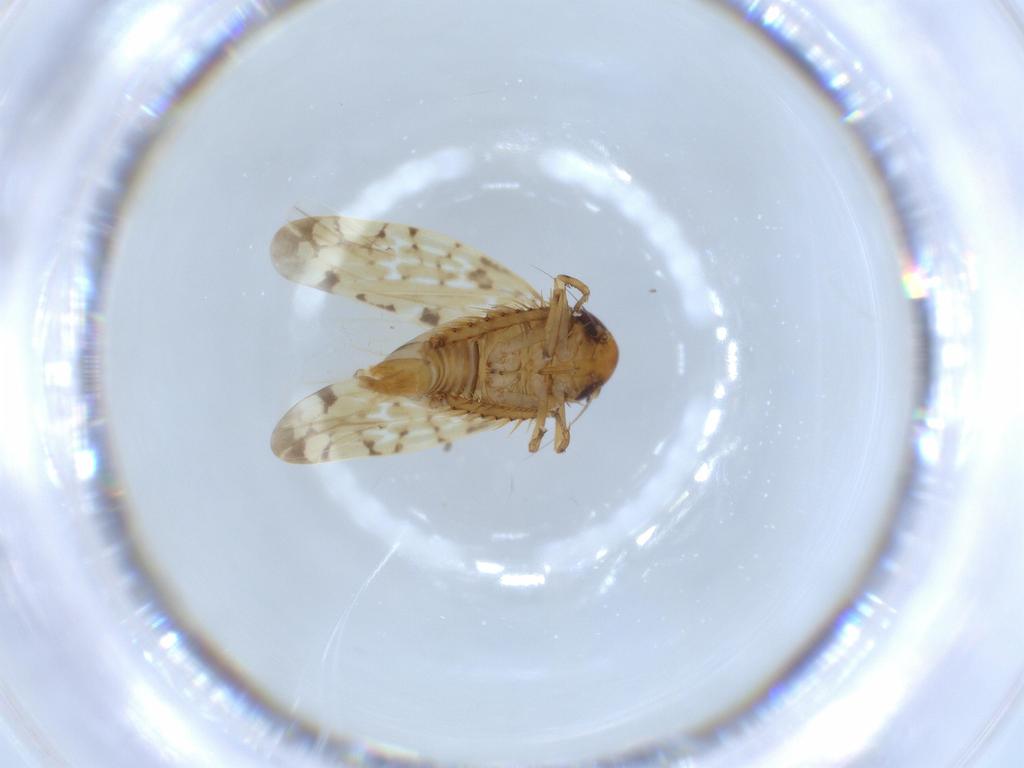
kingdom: Animalia
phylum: Arthropoda
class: Insecta
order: Hemiptera
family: Cicadellidae
